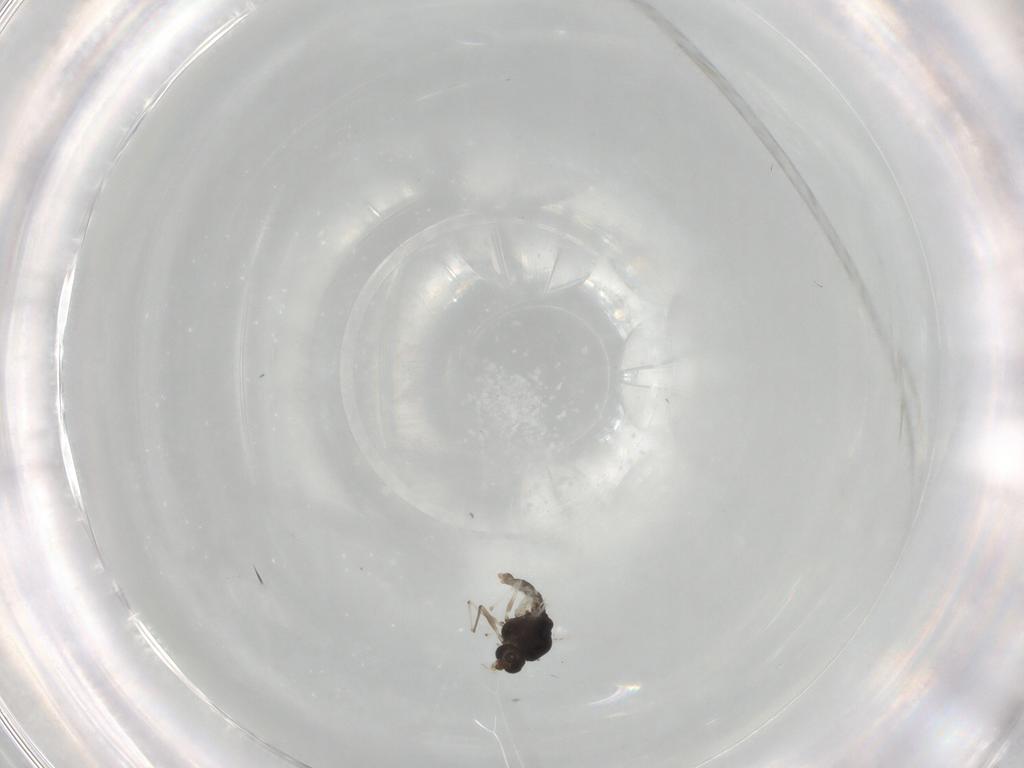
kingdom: Animalia
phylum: Arthropoda
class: Insecta
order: Diptera
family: Chironomidae
